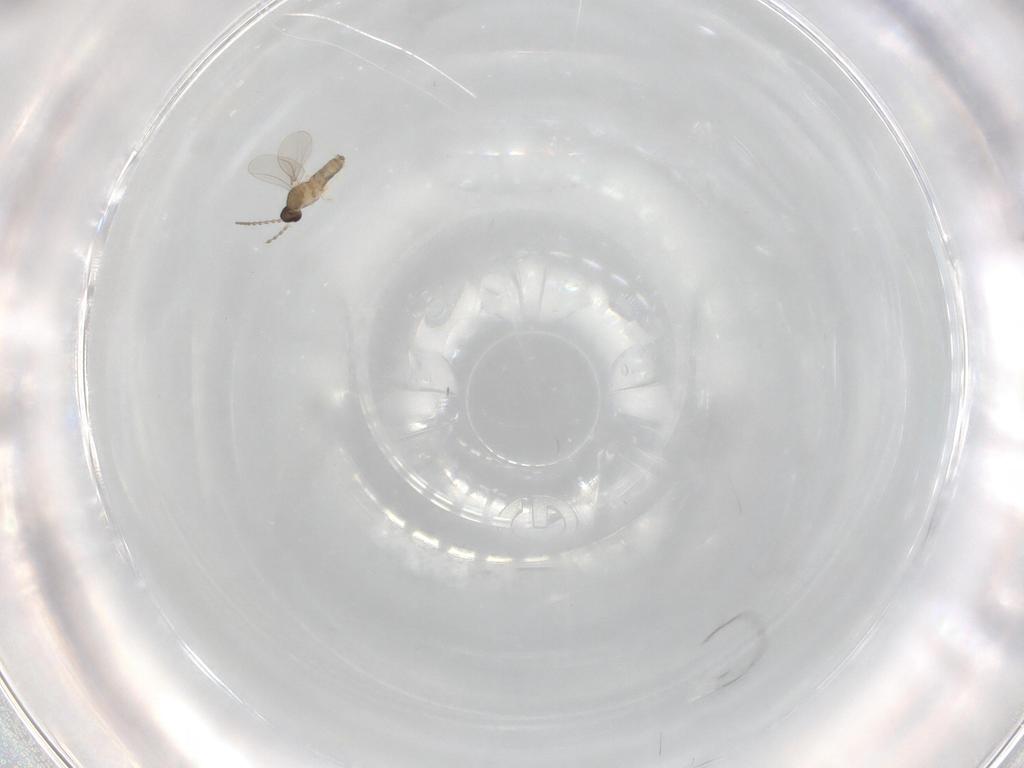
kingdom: Animalia
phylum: Arthropoda
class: Insecta
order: Diptera
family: Cecidomyiidae
